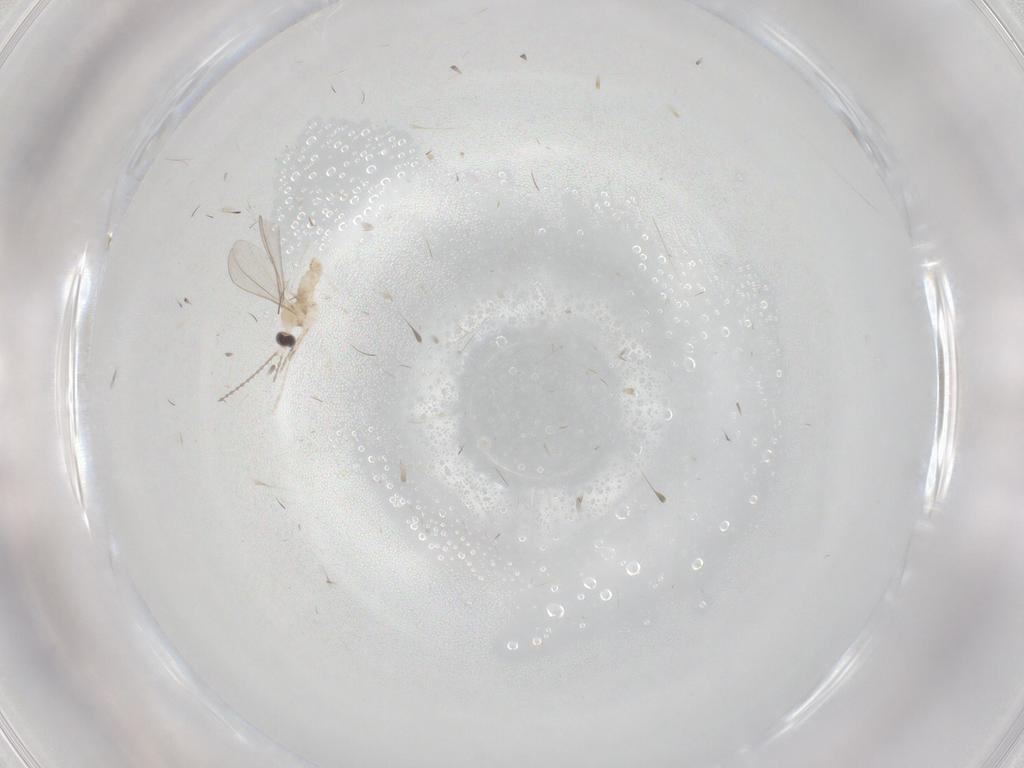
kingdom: Animalia
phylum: Arthropoda
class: Insecta
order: Diptera
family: Cecidomyiidae
